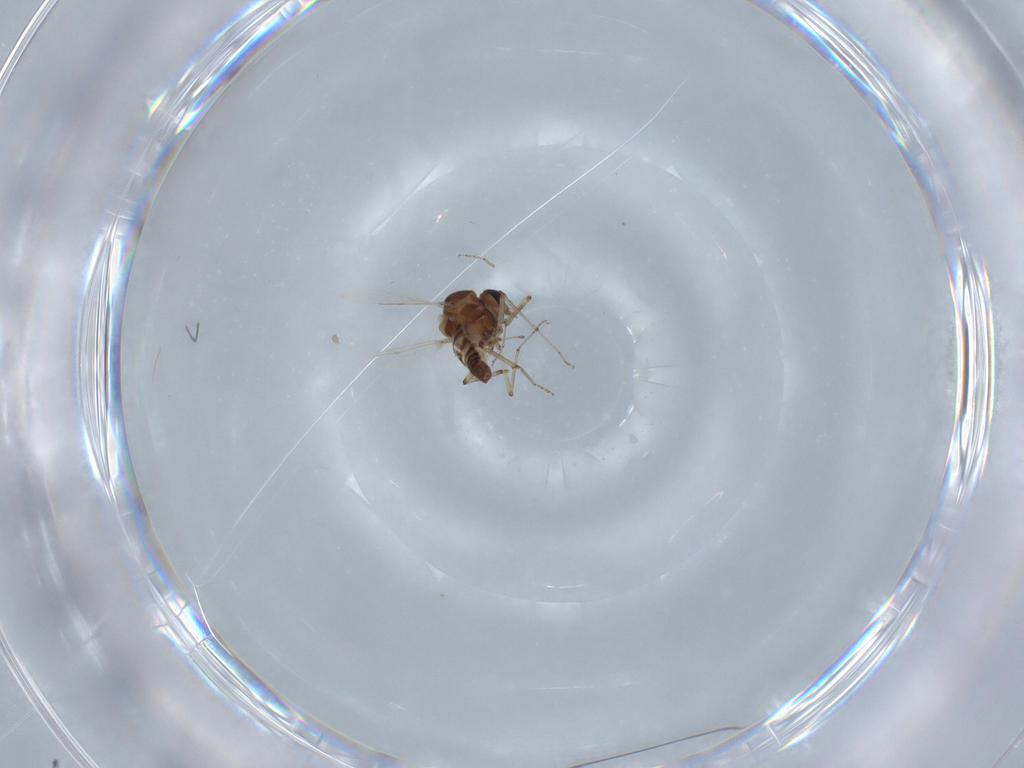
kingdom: Animalia
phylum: Arthropoda
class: Insecta
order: Diptera
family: Ceratopogonidae
